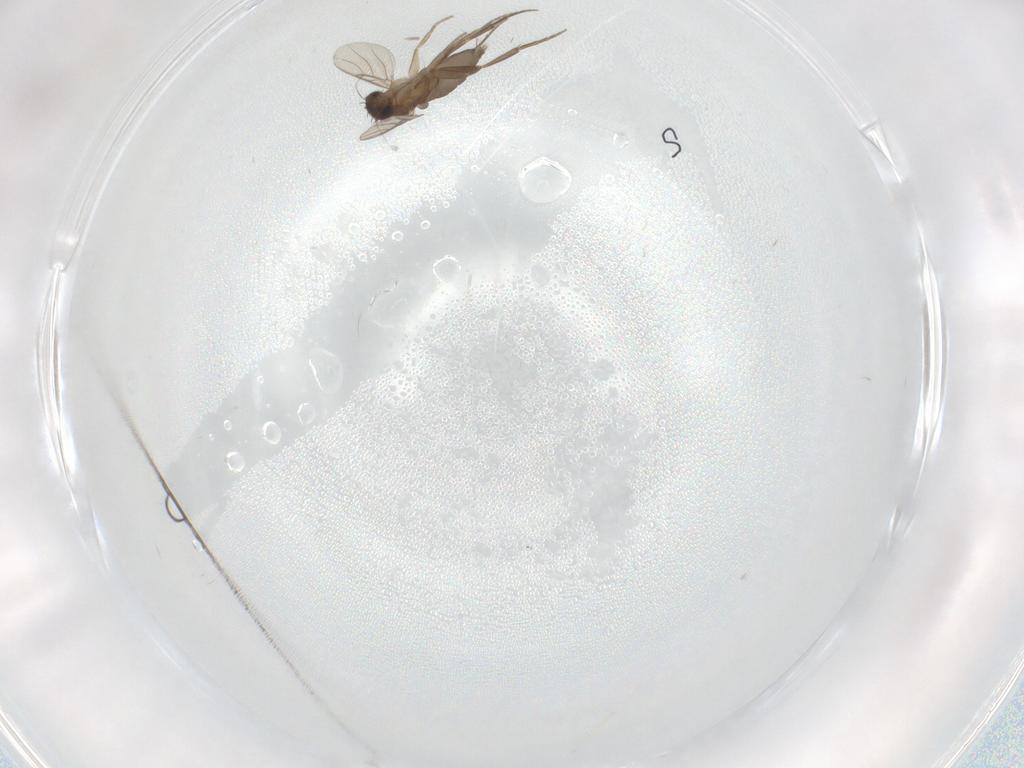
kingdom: Animalia
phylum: Arthropoda
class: Insecta
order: Diptera
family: Phoridae
